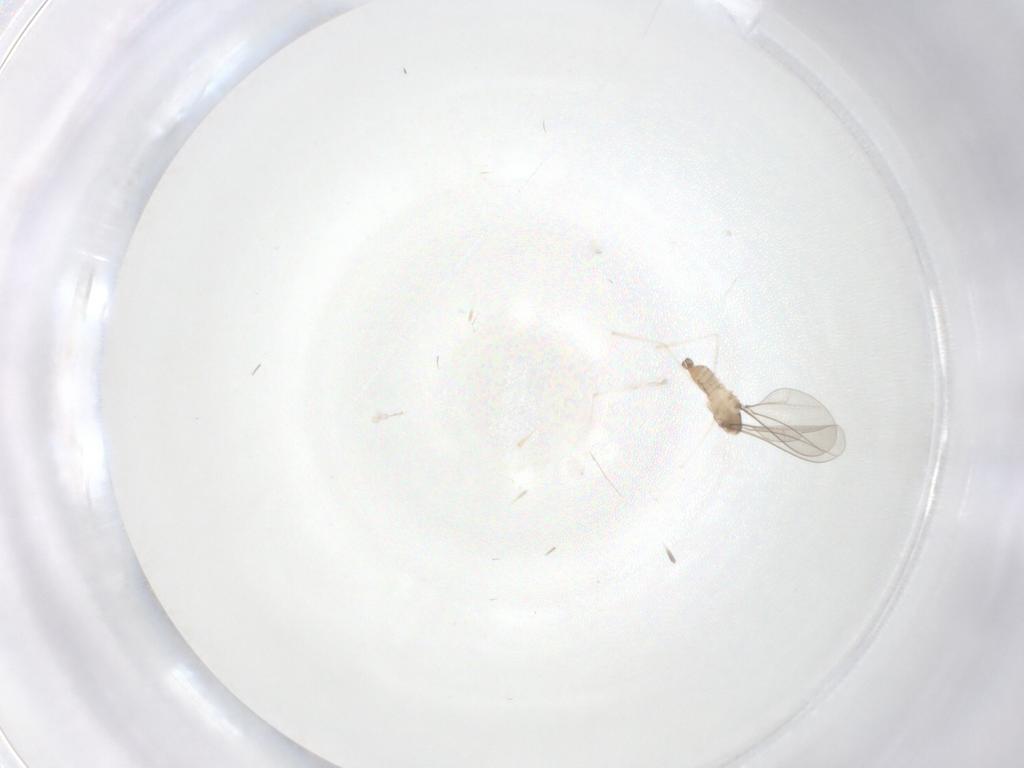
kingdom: Animalia
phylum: Arthropoda
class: Insecta
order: Diptera
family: Cecidomyiidae
